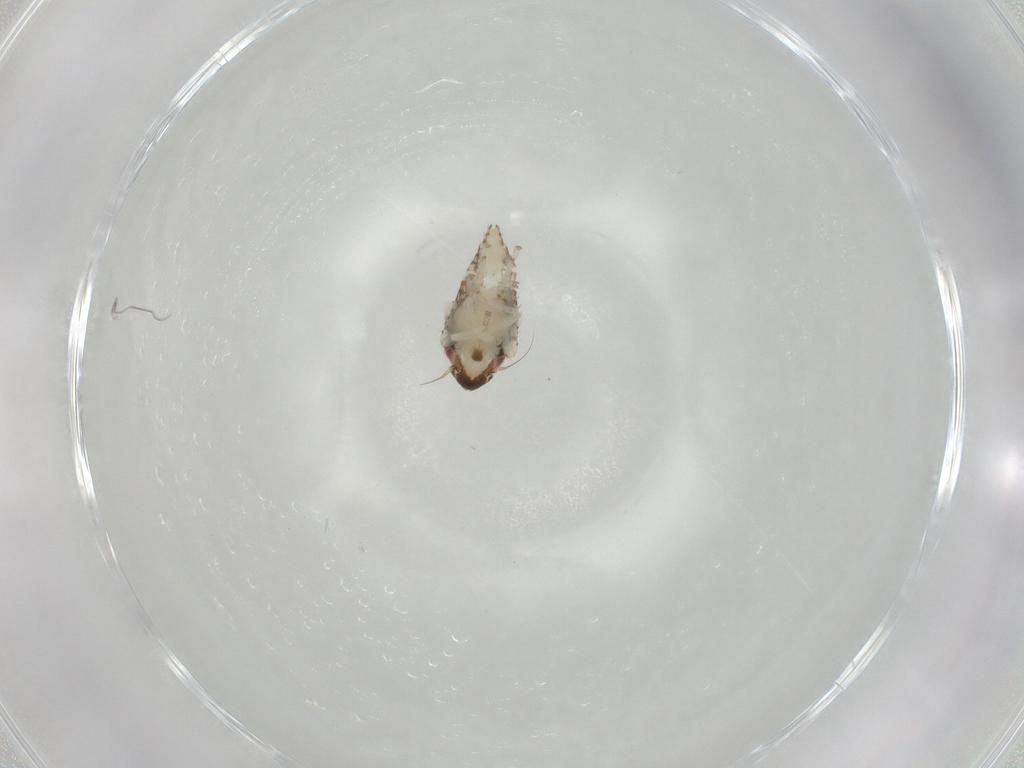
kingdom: Animalia
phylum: Arthropoda
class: Insecta
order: Hemiptera
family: Cicadellidae
